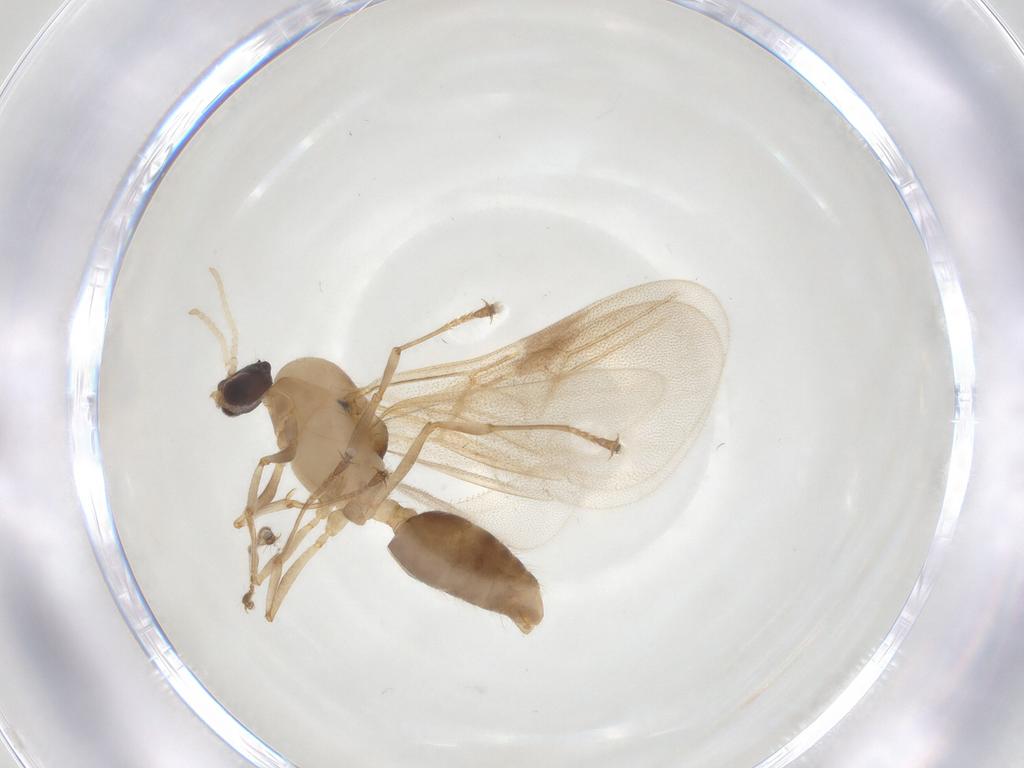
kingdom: Animalia
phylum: Arthropoda
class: Insecta
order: Hymenoptera
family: Formicidae
